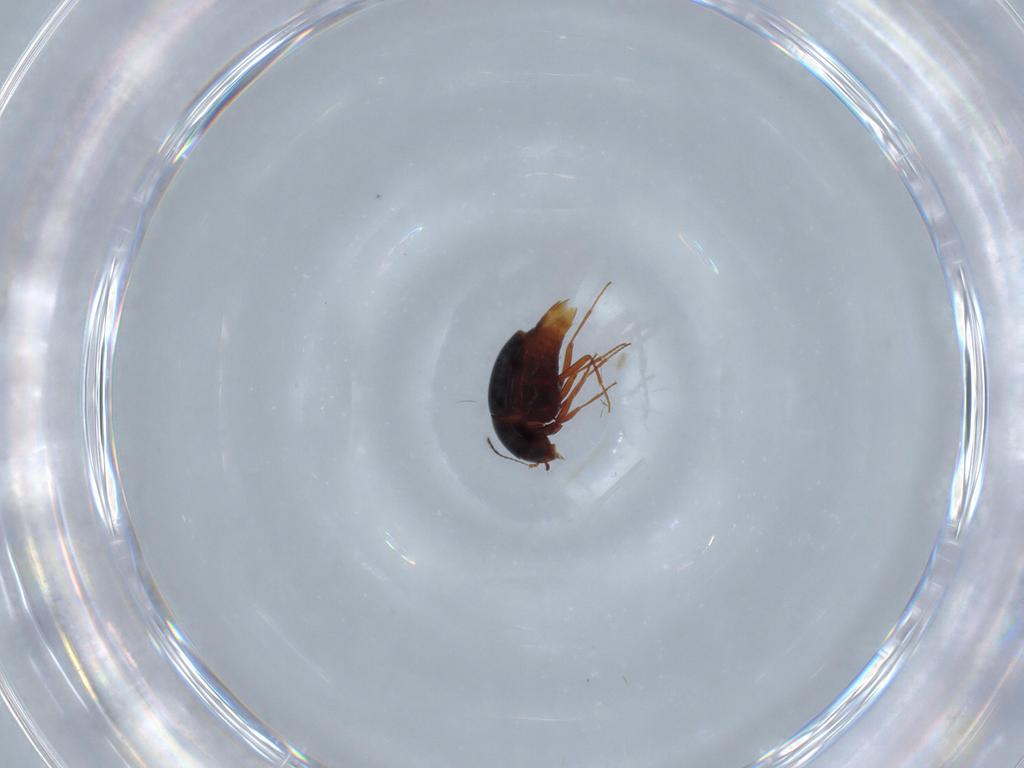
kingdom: Animalia
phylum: Arthropoda
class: Insecta
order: Coleoptera
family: Staphylinidae
